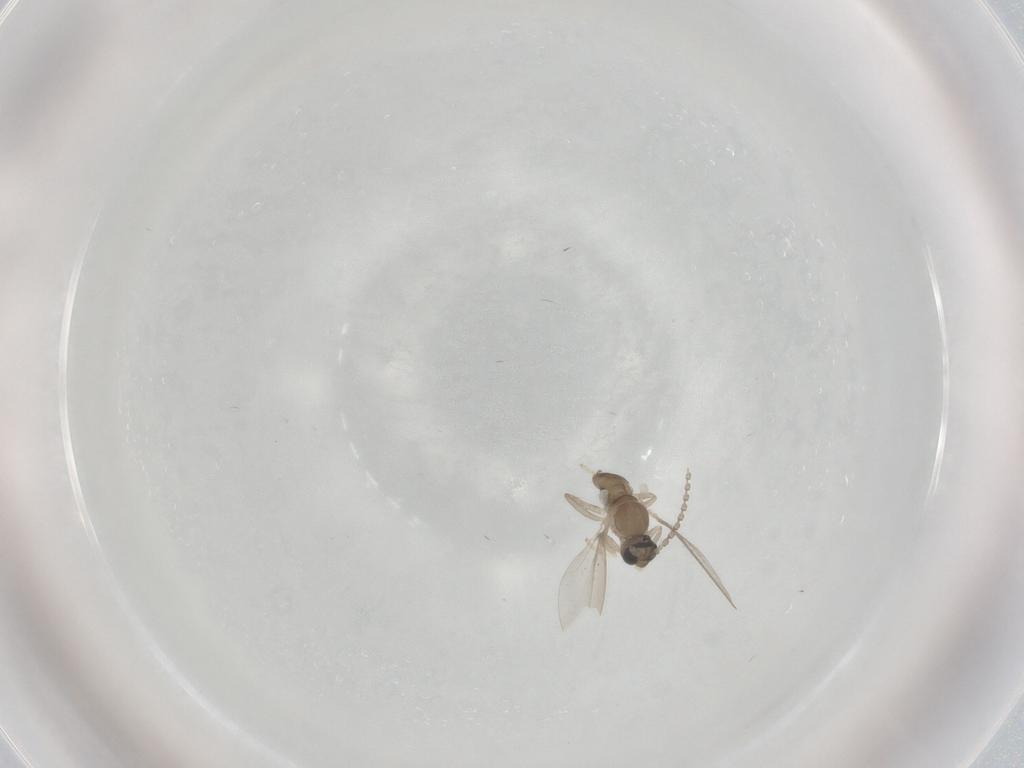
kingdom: Animalia
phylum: Arthropoda
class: Insecta
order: Diptera
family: Cecidomyiidae
